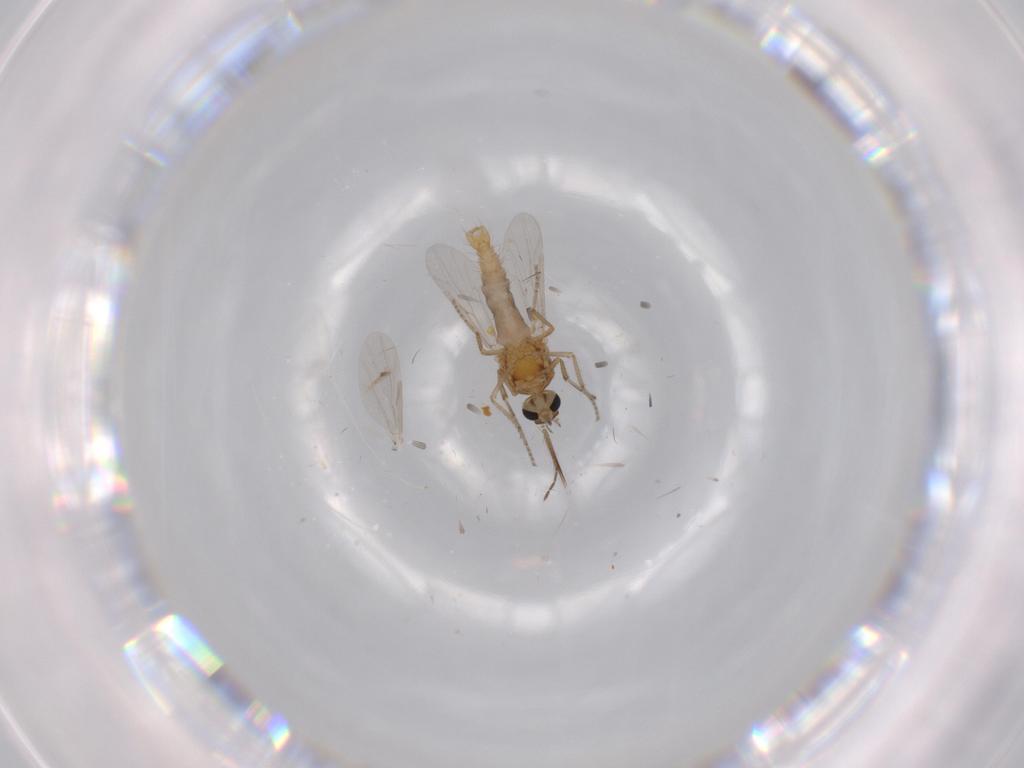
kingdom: Animalia
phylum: Arthropoda
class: Insecta
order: Diptera
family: Ceratopogonidae
